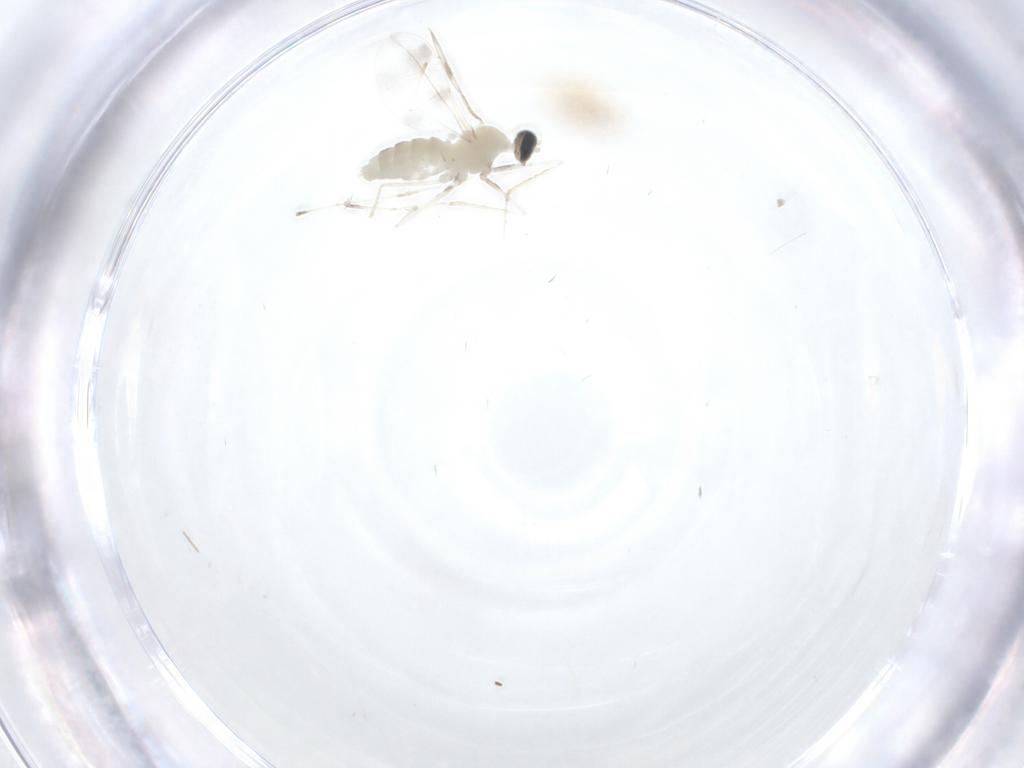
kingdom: Animalia
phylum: Arthropoda
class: Insecta
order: Diptera
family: Cecidomyiidae
